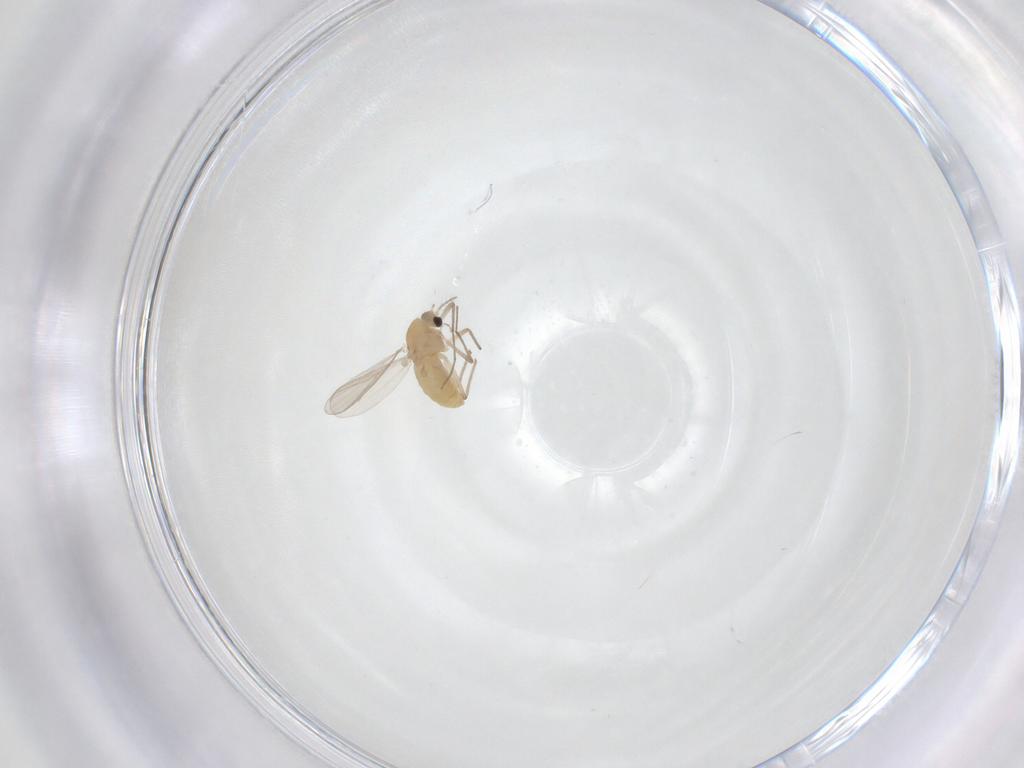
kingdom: Animalia
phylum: Arthropoda
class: Insecta
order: Diptera
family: Chironomidae
